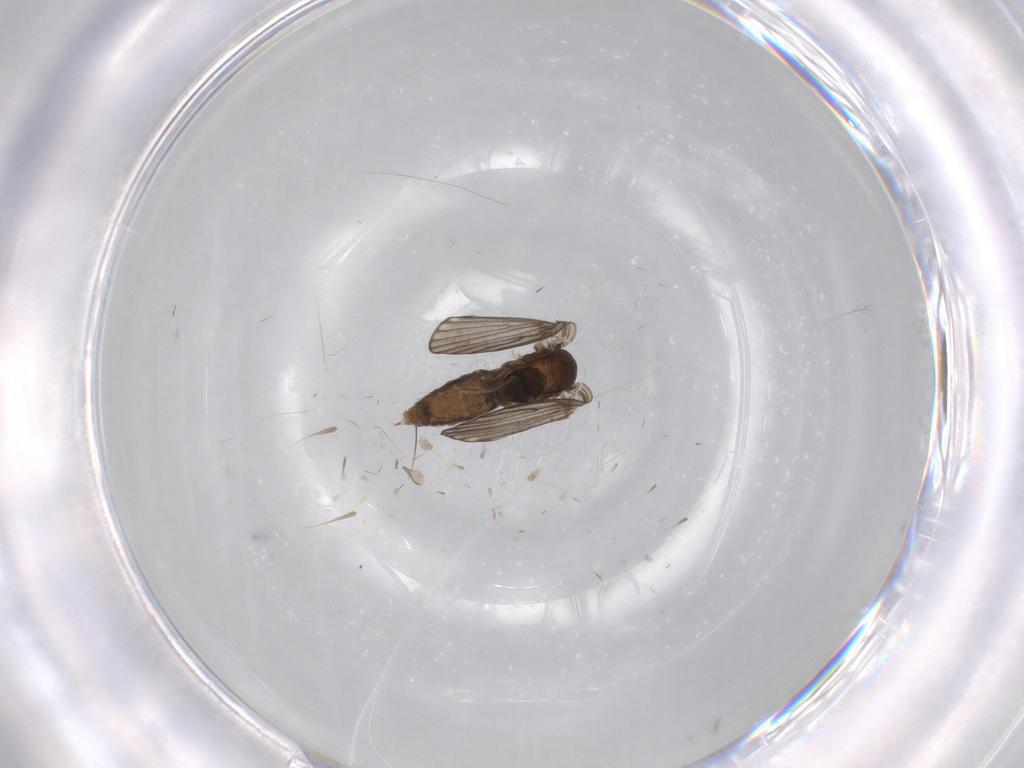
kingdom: Animalia
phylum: Arthropoda
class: Insecta
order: Diptera
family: Psychodidae
